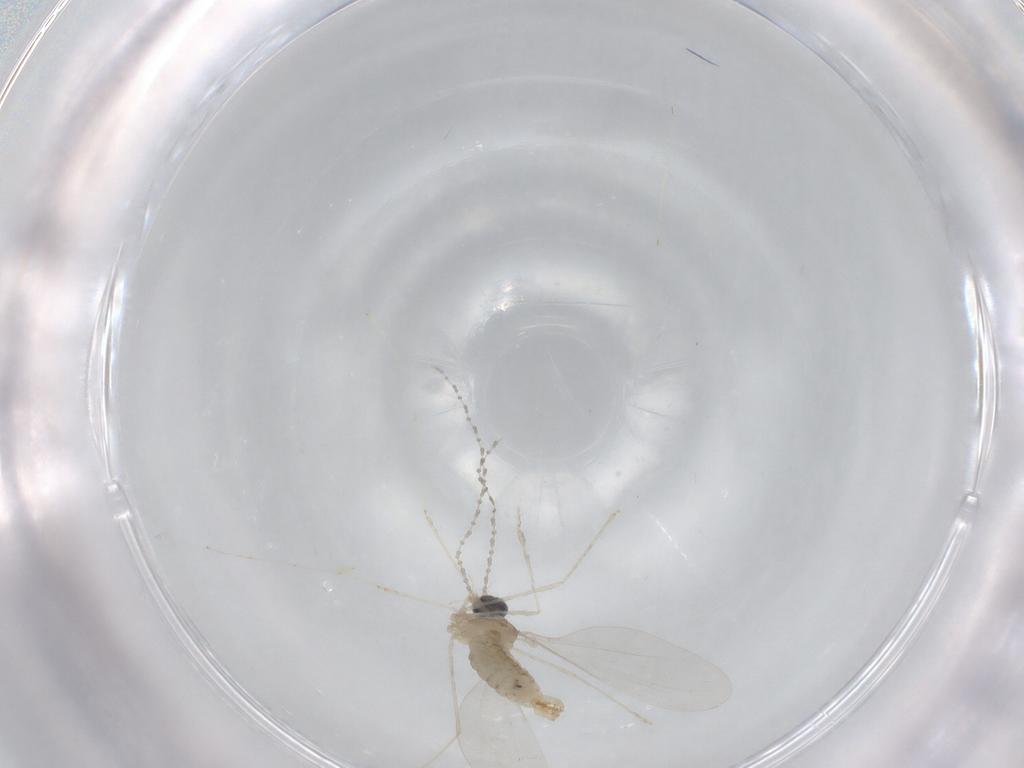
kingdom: Animalia
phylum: Arthropoda
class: Insecta
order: Diptera
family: Cecidomyiidae
